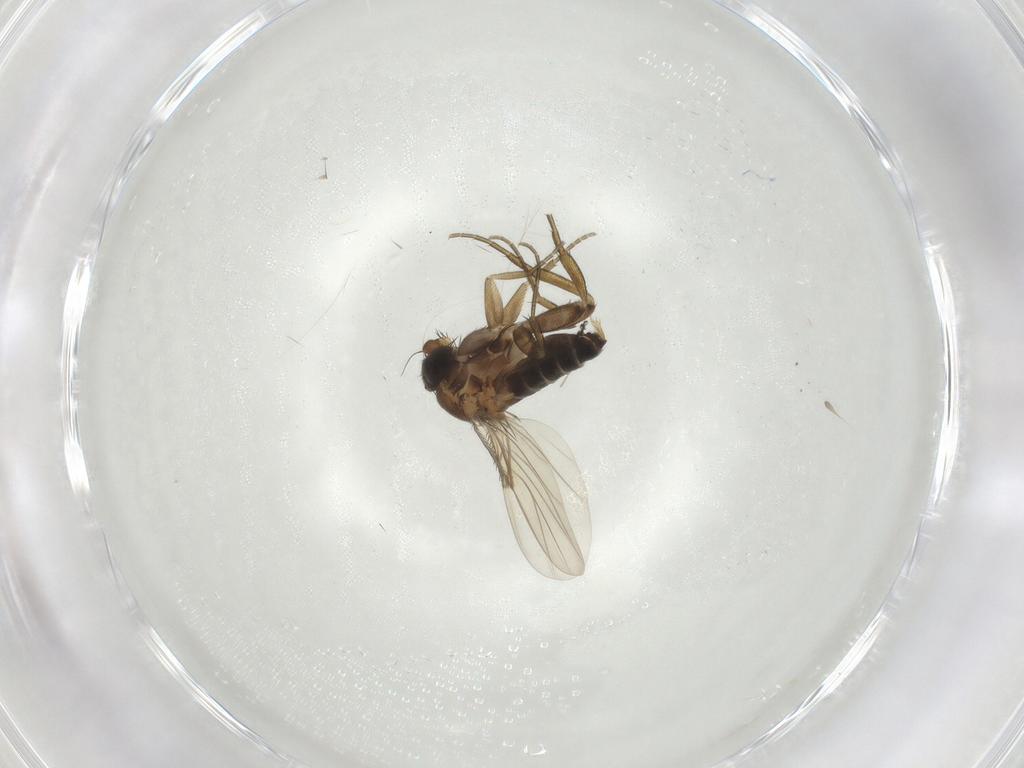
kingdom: Animalia
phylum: Arthropoda
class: Insecta
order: Diptera
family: Phoridae
